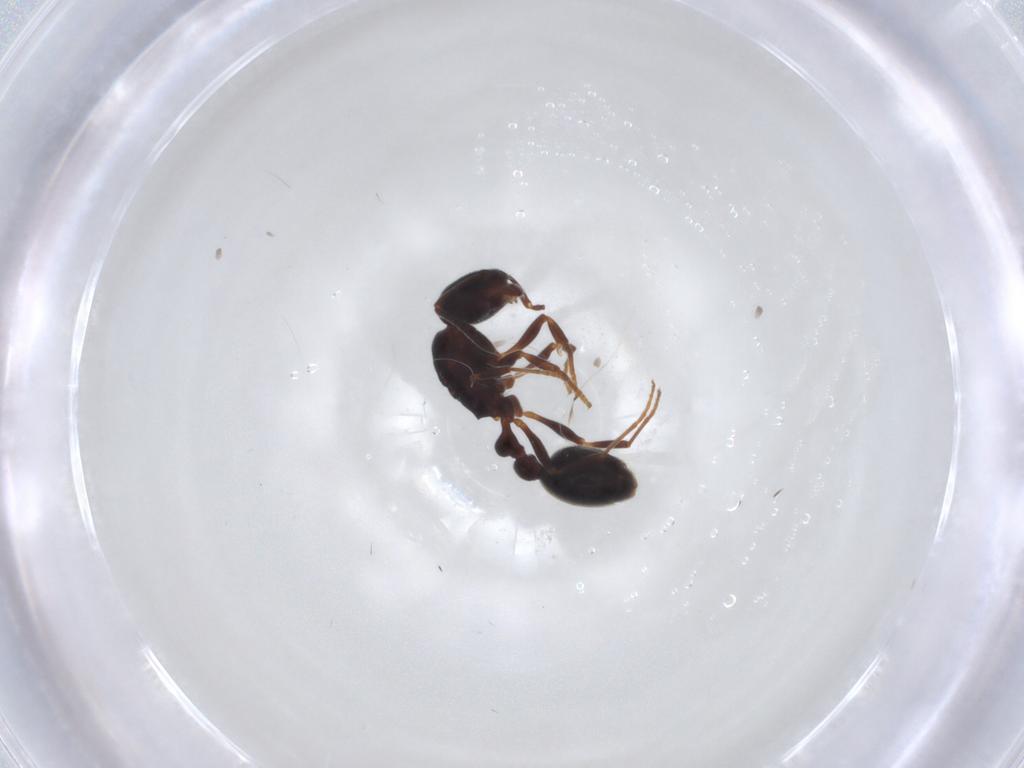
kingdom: Animalia
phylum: Arthropoda
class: Insecta
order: Hymenoptera
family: Formicidae
